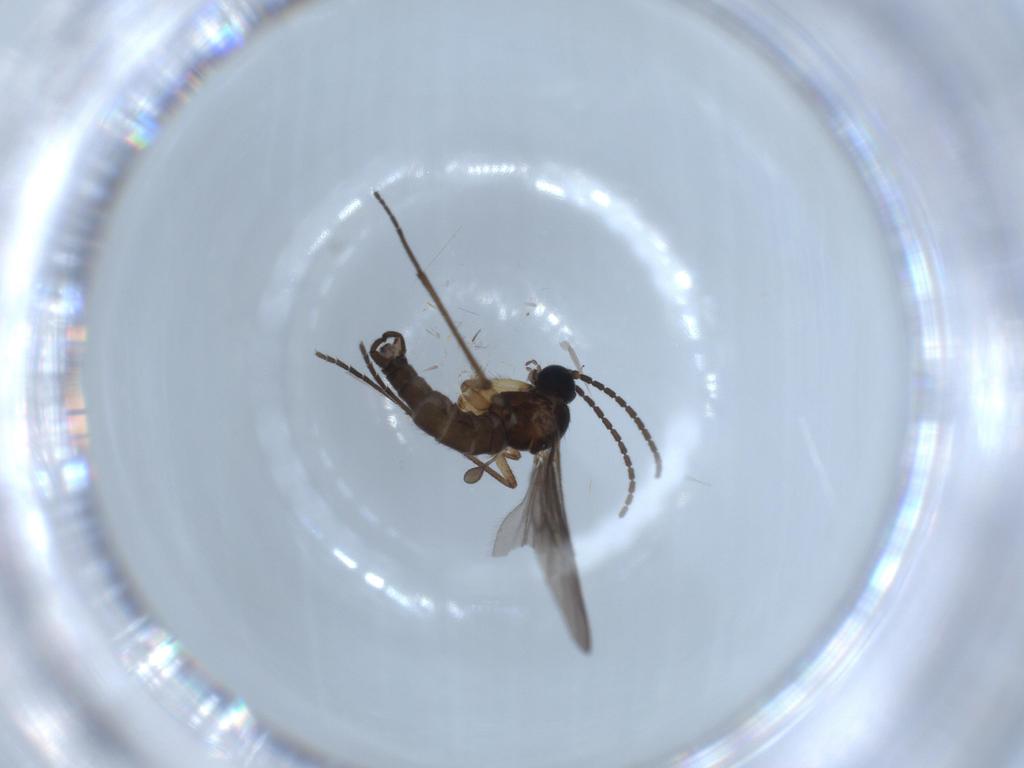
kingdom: Animalia
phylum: Arthropoda
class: Insecta
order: Diptera
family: Chironomidae
